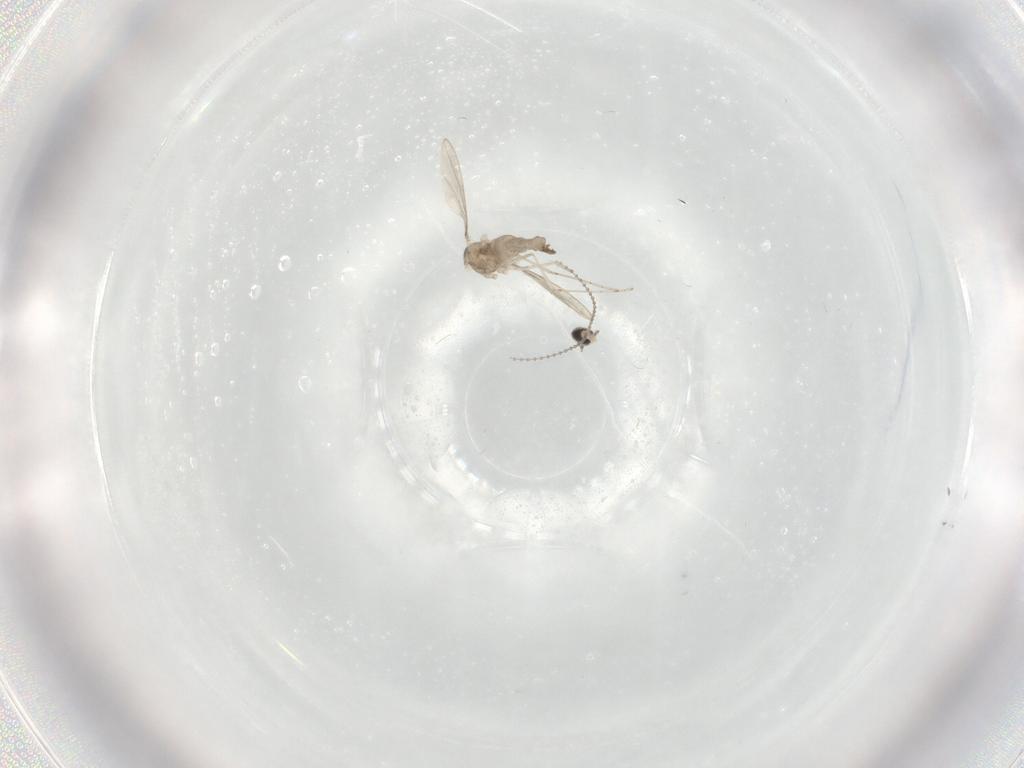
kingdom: Animalia
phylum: Arthropoda
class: Insecta
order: Diptera
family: Cecidomyiidae
